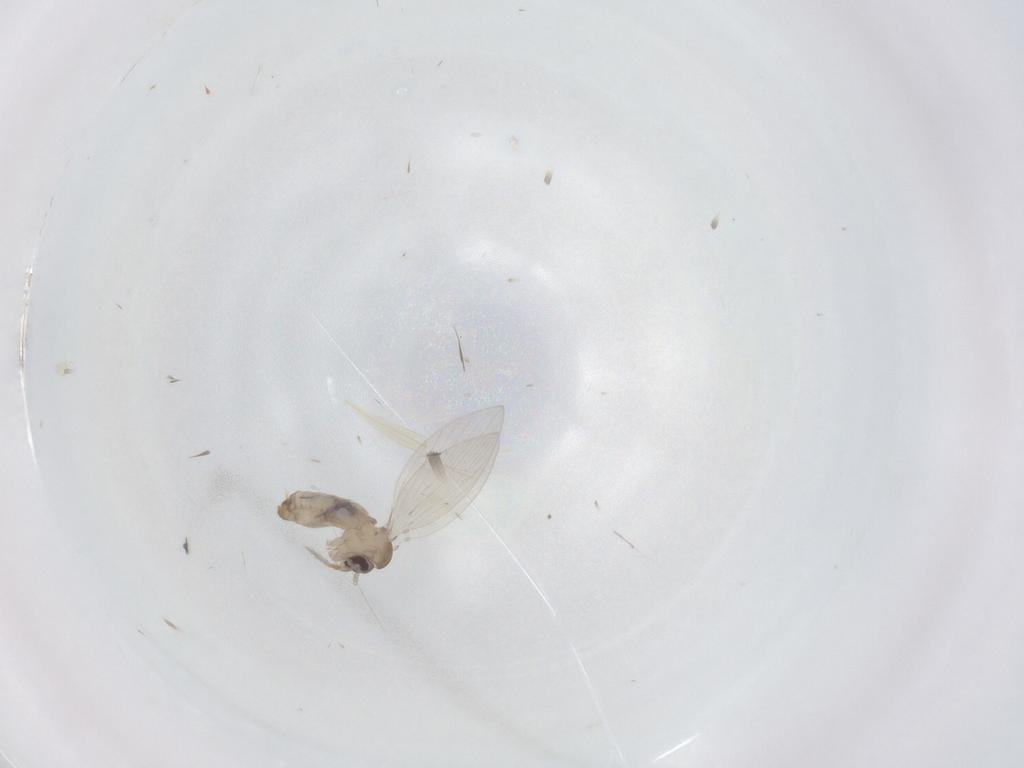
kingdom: Animalia
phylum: Arthropoda
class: Insecta
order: Diptera
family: Psychodidae
